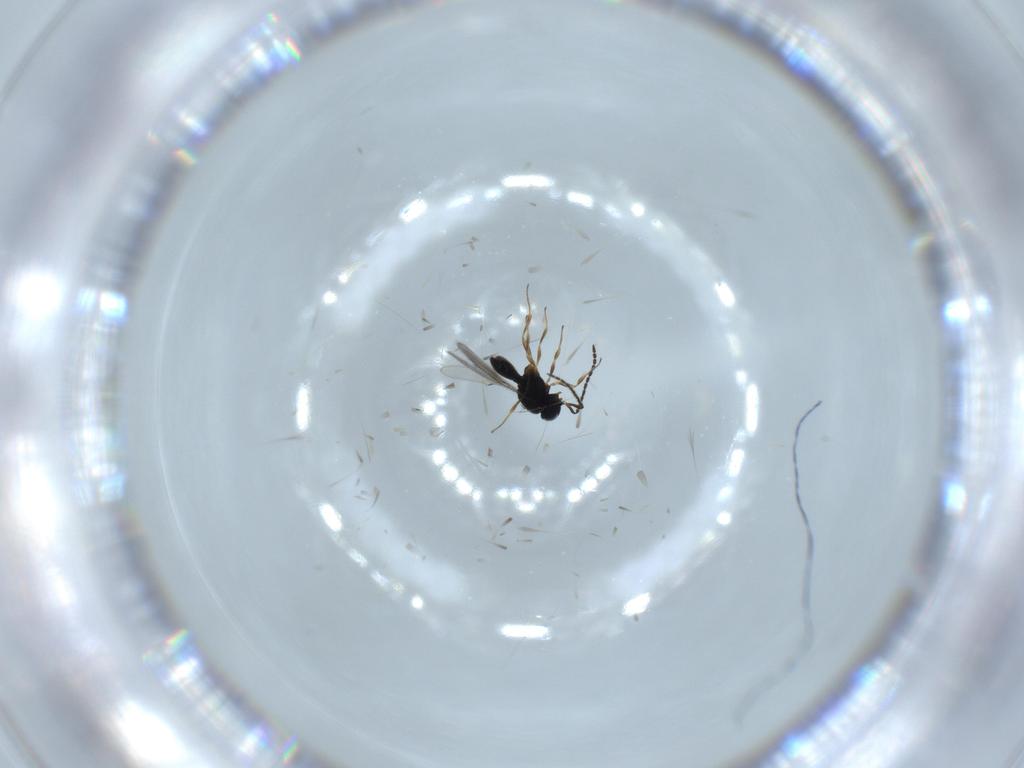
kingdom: Animalia
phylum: Arthropoda
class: Insecta
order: Hymenoptera
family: Scelionidae
